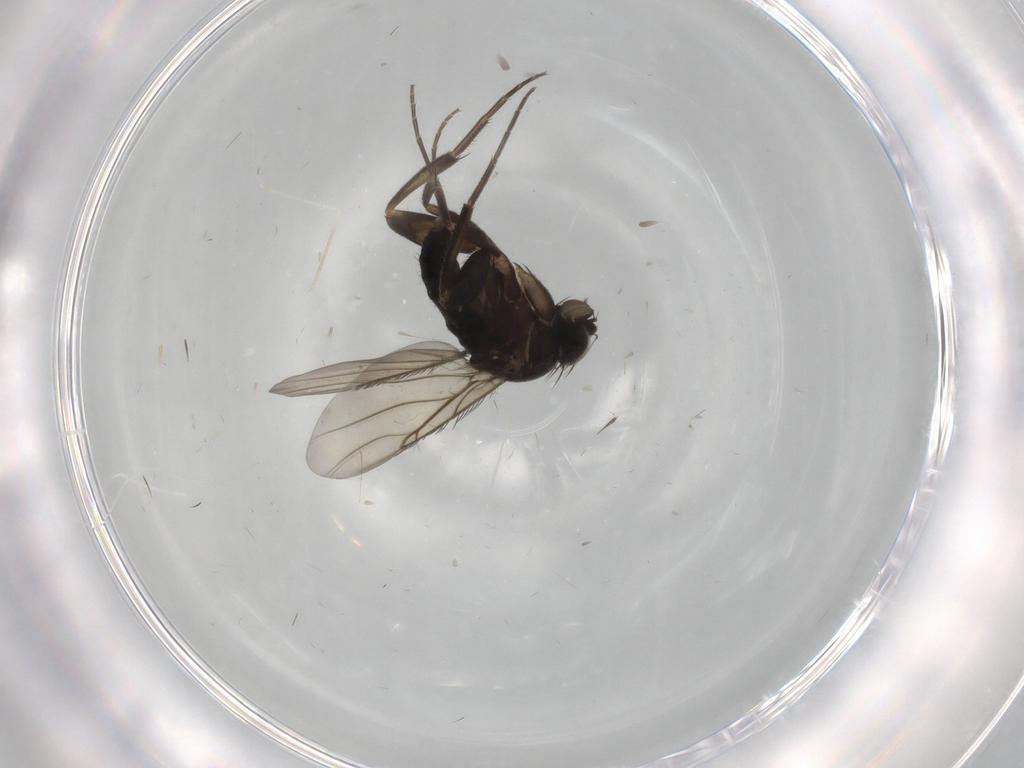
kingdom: Animalia
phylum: Arthropoda
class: Insecta
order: Diptera
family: Phoridae
